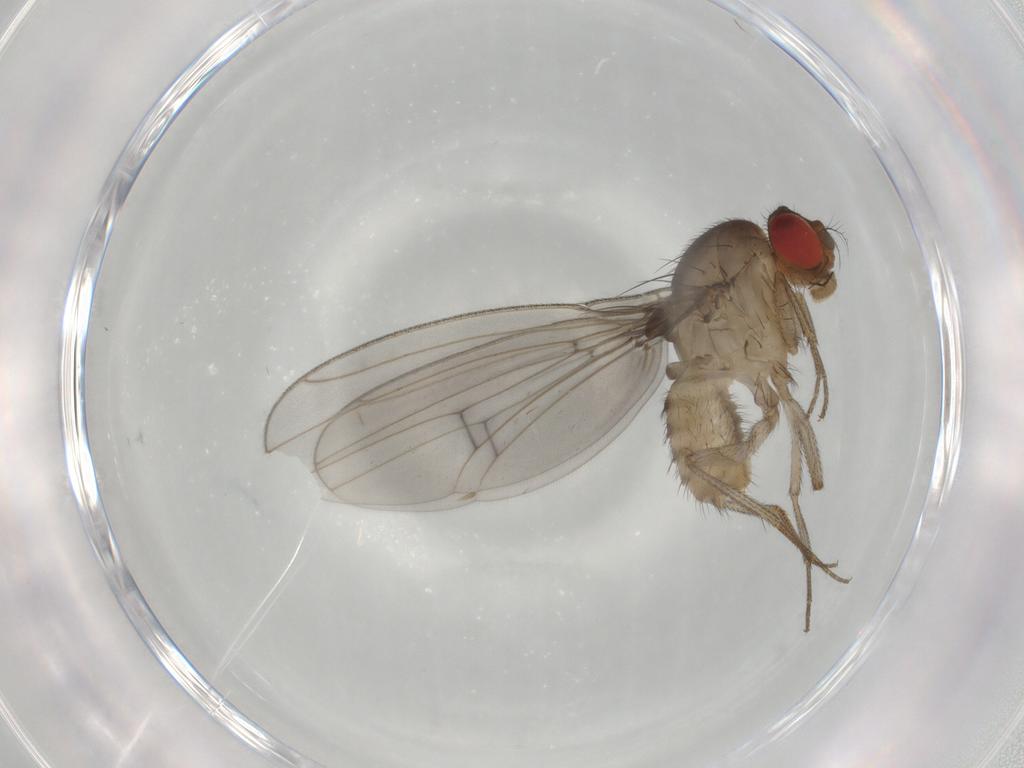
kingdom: Animalia
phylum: Arthropoda
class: Insecta
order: Diptera
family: Drosophilidae
